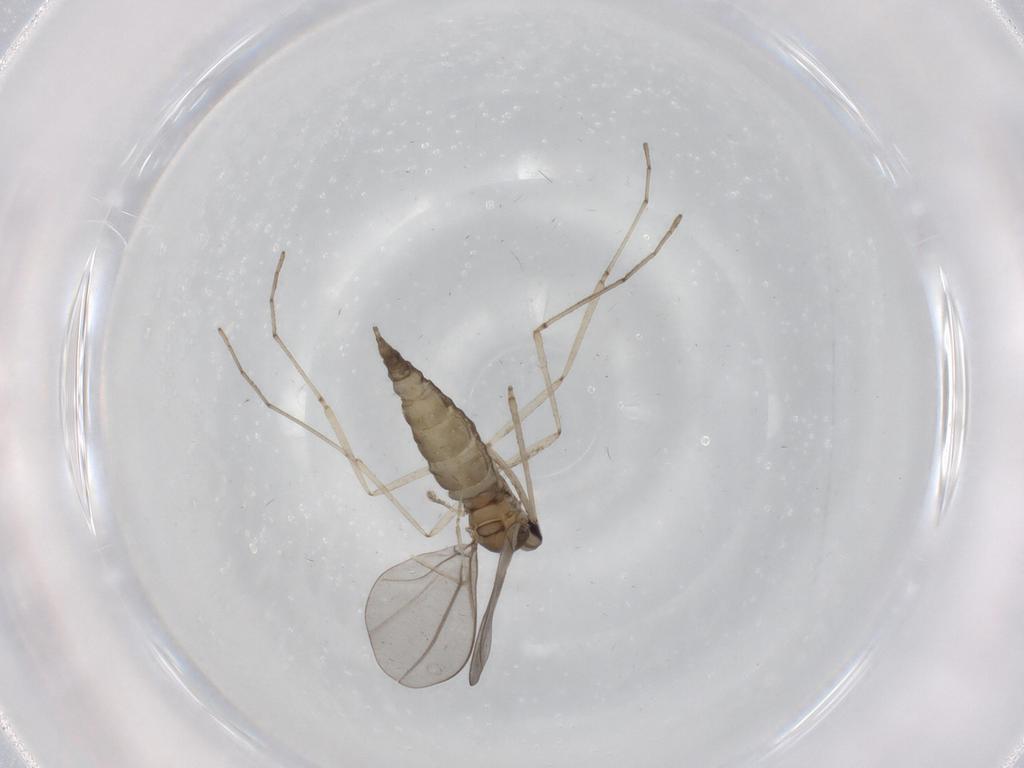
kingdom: Animalia
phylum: Arthropoda
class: Insecta
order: Diptera
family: Cecidomyiidae
